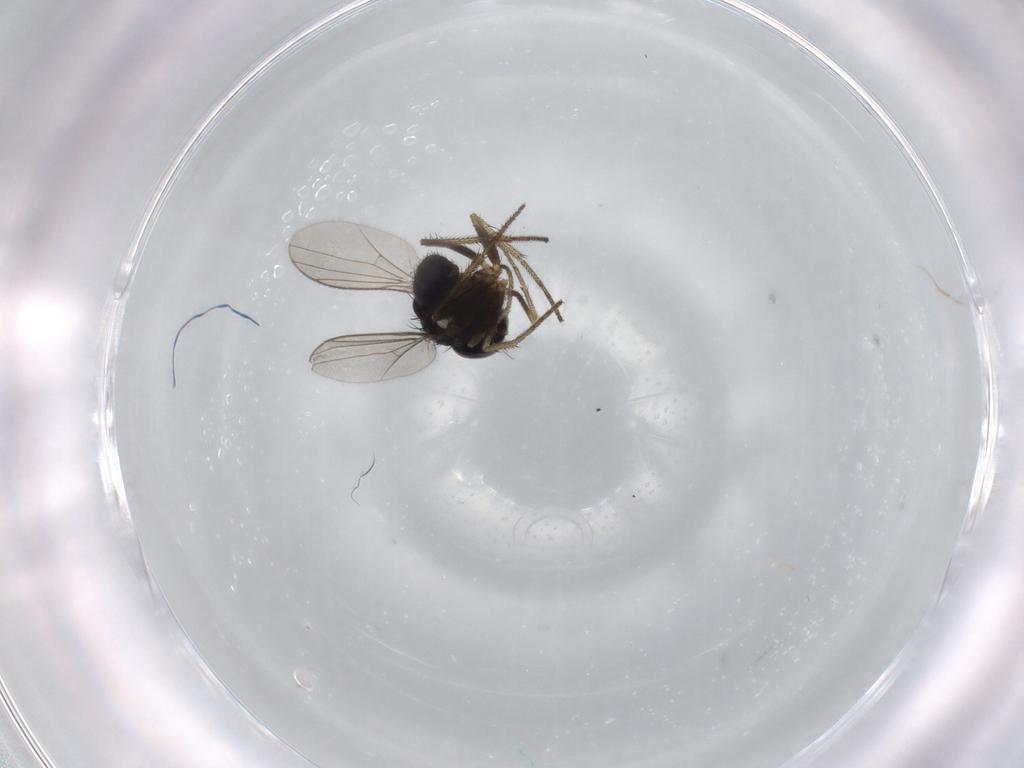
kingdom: Animalia
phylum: Arthropoda
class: Insecta
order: Diptera
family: Dolichopodidae
